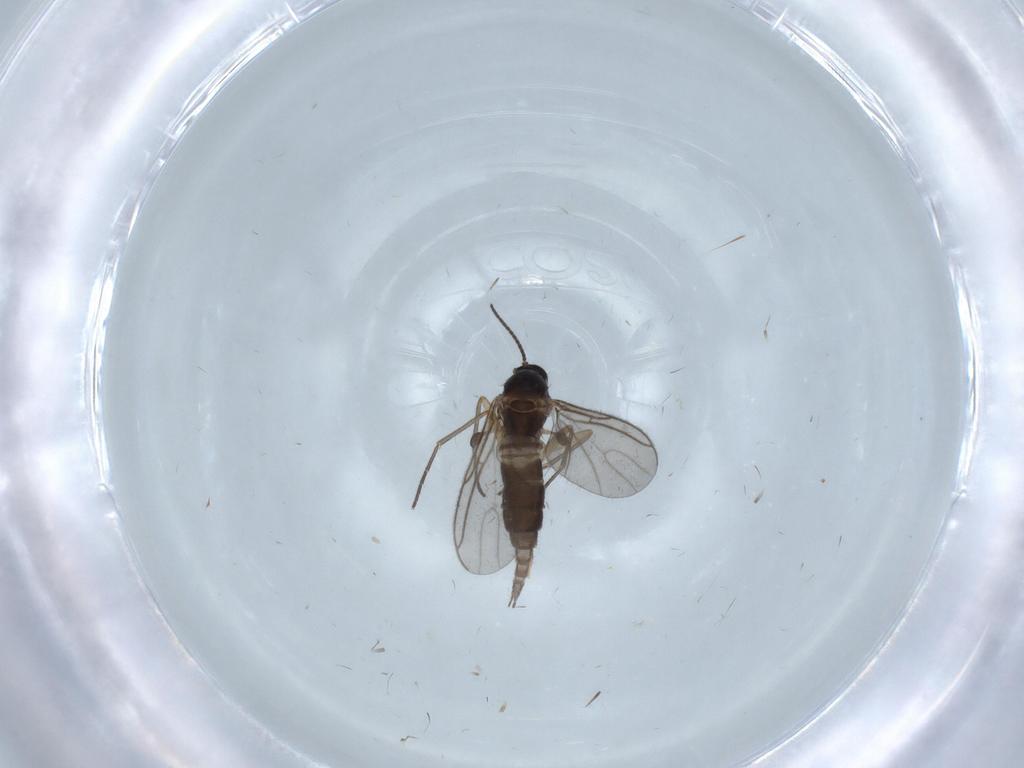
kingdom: Animalia
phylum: Arthropoda
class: Insecta
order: Diptera
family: Sciaridae
